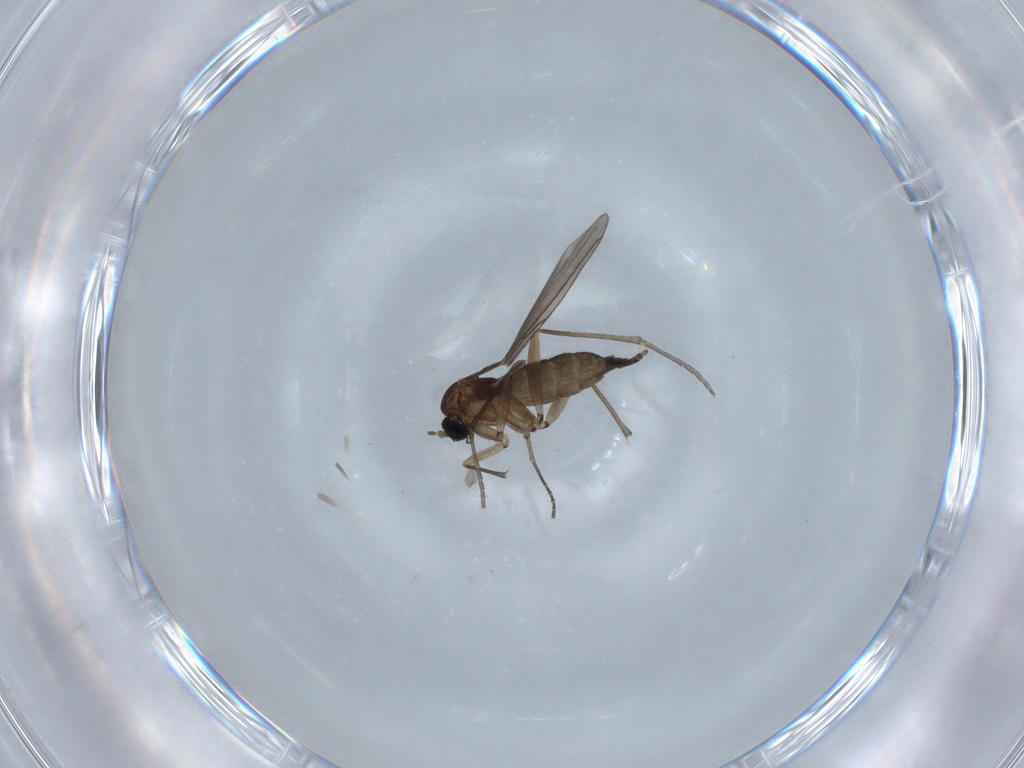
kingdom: Animalia
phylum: Arthropoda
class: Insecta
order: Diptera
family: Sciaridae
